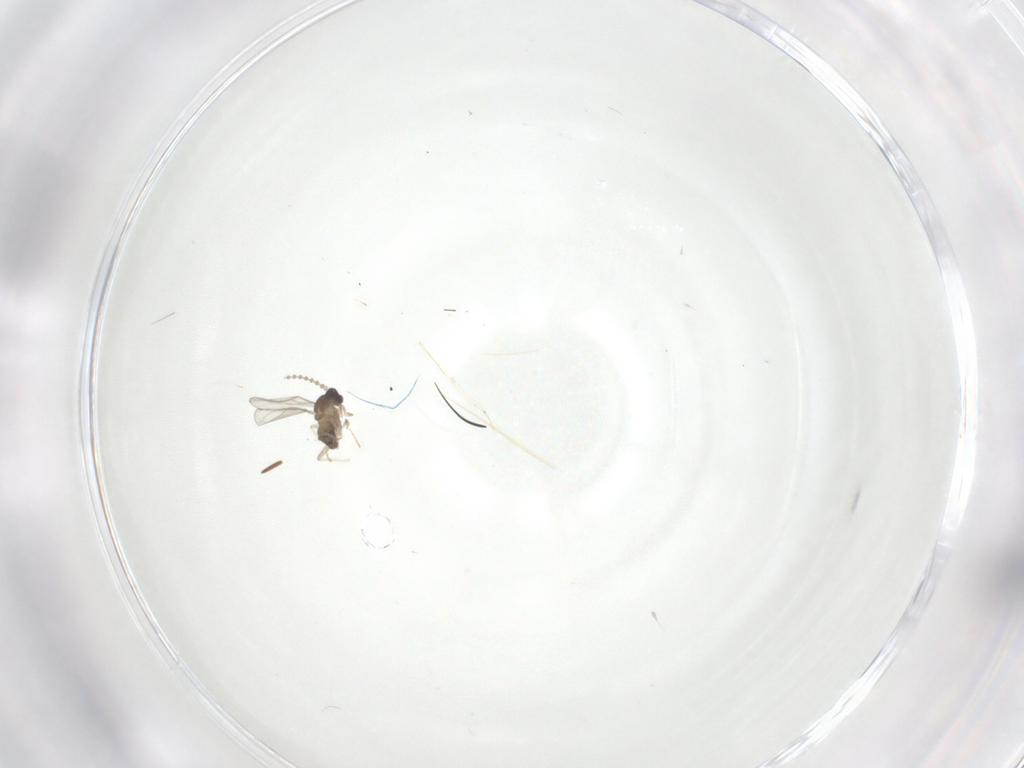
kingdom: Animalia
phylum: Arthropoda
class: Insecta
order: Diptera
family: Cecidomyiidae
